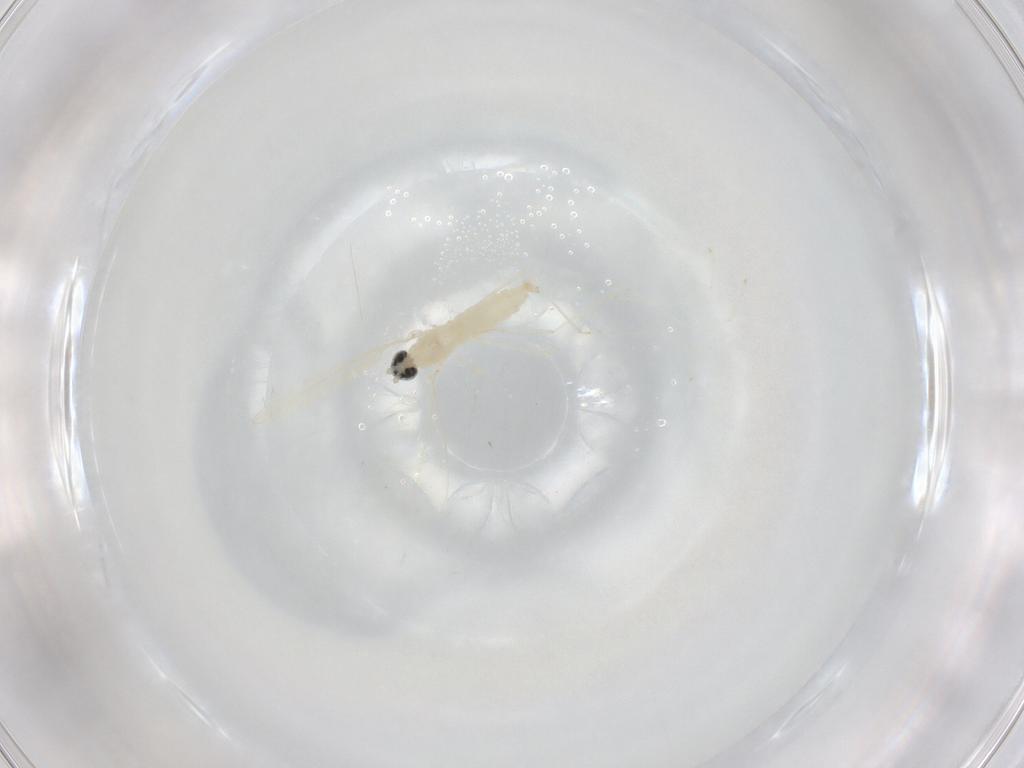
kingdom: Animalia
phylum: Arthropoda
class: Insecta
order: Diptera
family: Cecidomyiidae
